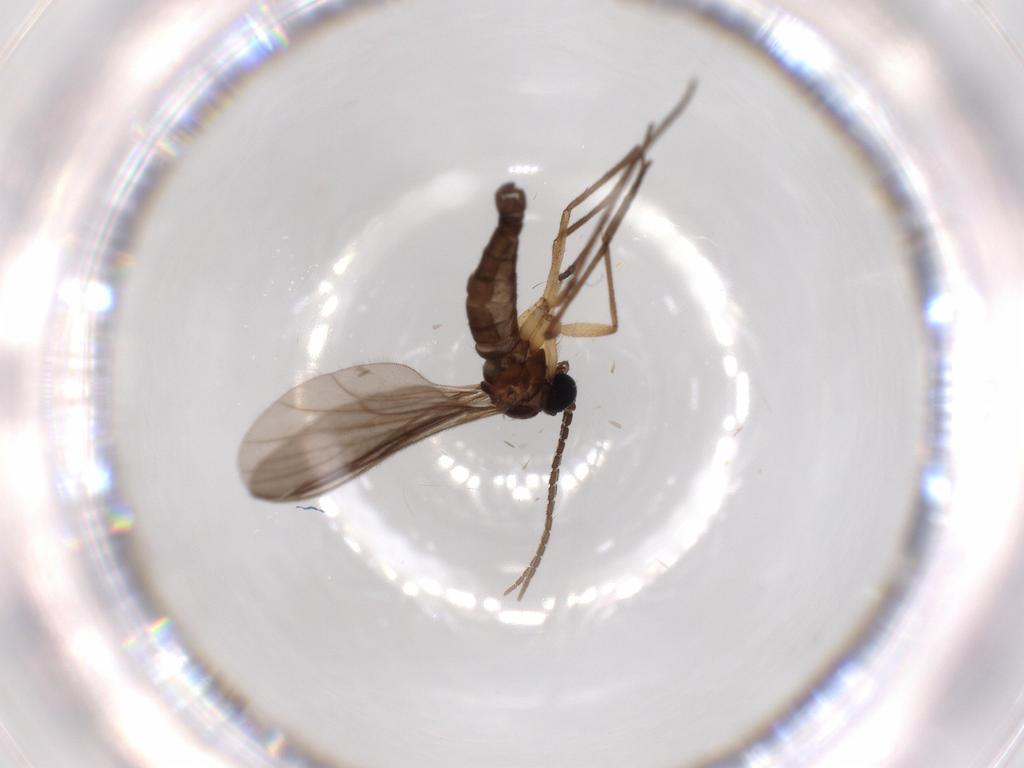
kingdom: Animalia
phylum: Arthropoda
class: Insecta
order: Diptera
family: Sciaridae
